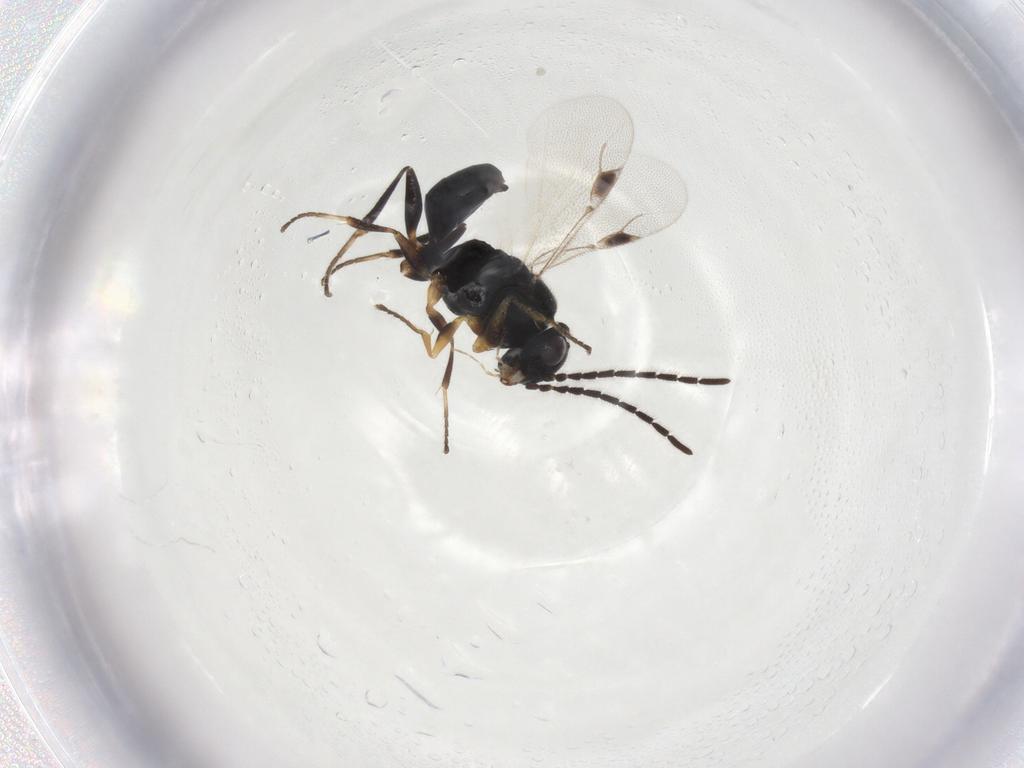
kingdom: Animalia
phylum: Arthropoda
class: Insecta
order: Hymenoptera
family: Dryinidae
